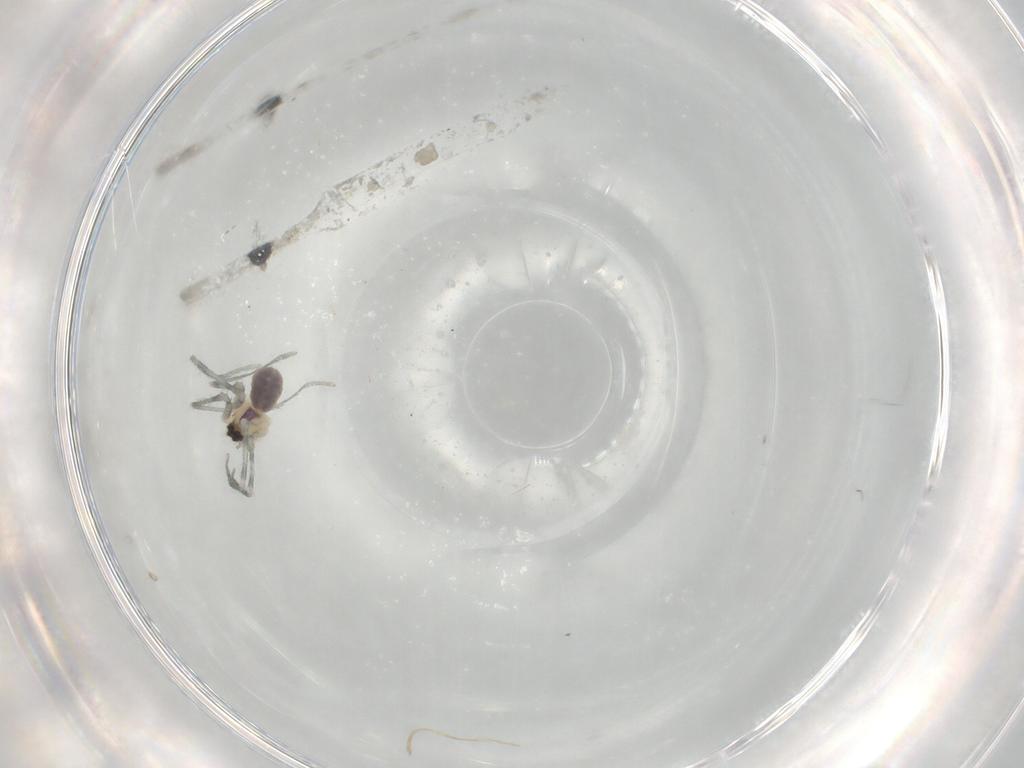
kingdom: Animalia
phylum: Arthropoda
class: Arachnida
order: Araneae
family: Pholcidae
